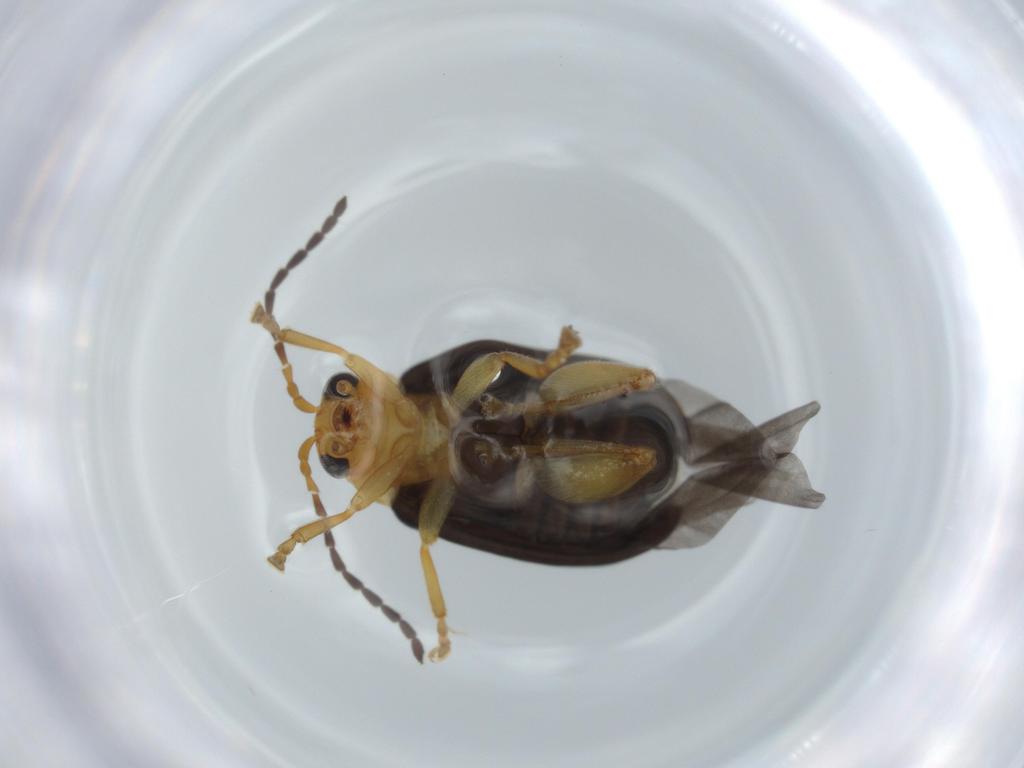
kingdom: Animalia
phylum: Arthropoda
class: Insecta
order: Coleoptera
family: Chrysomelidae
